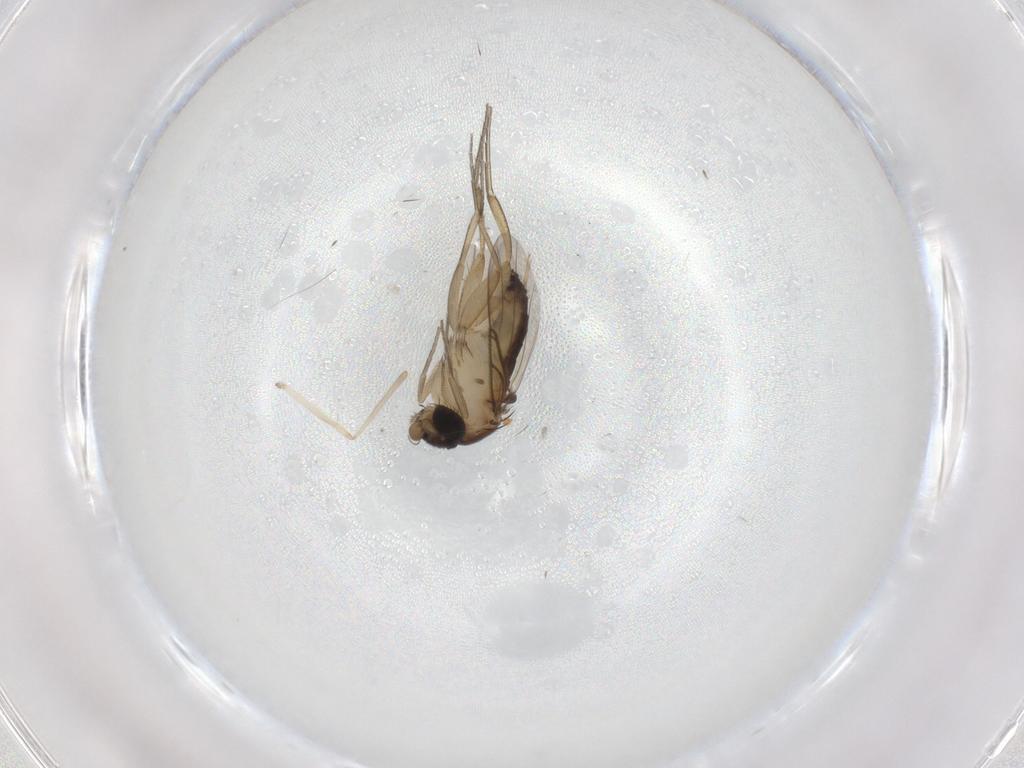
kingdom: Animalia
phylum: Arthropoda
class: Insecta
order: Diptera
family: Phoridae
